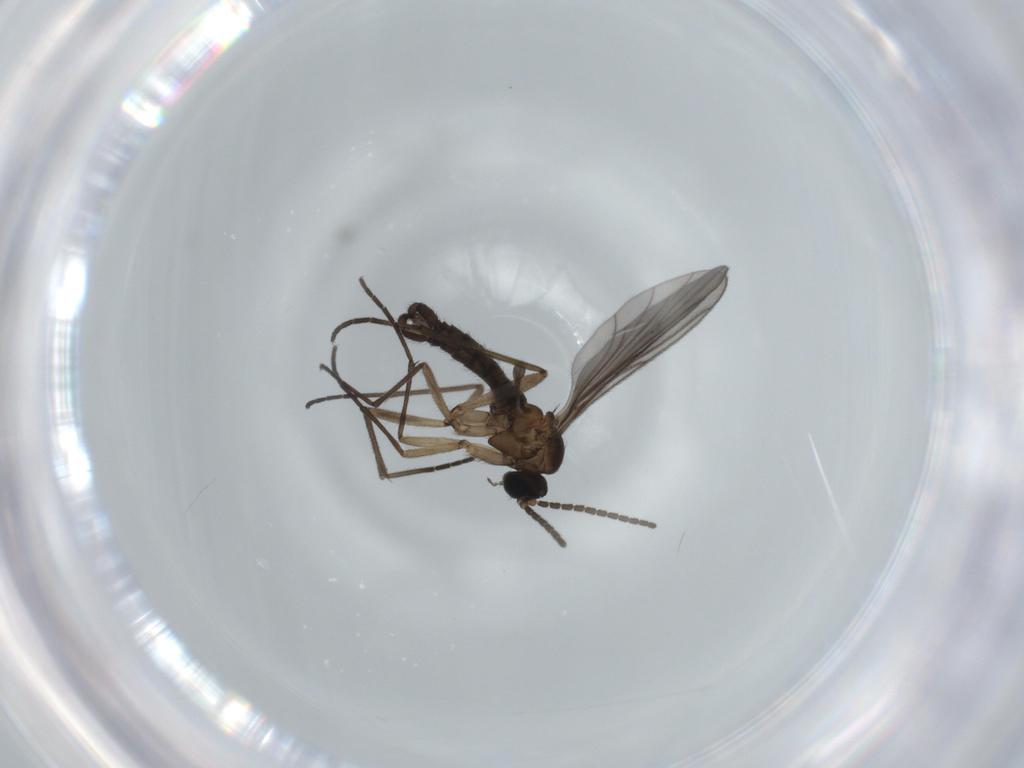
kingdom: Animalia
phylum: Arthropoda
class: Insecta
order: Diptera
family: Sciaridae
